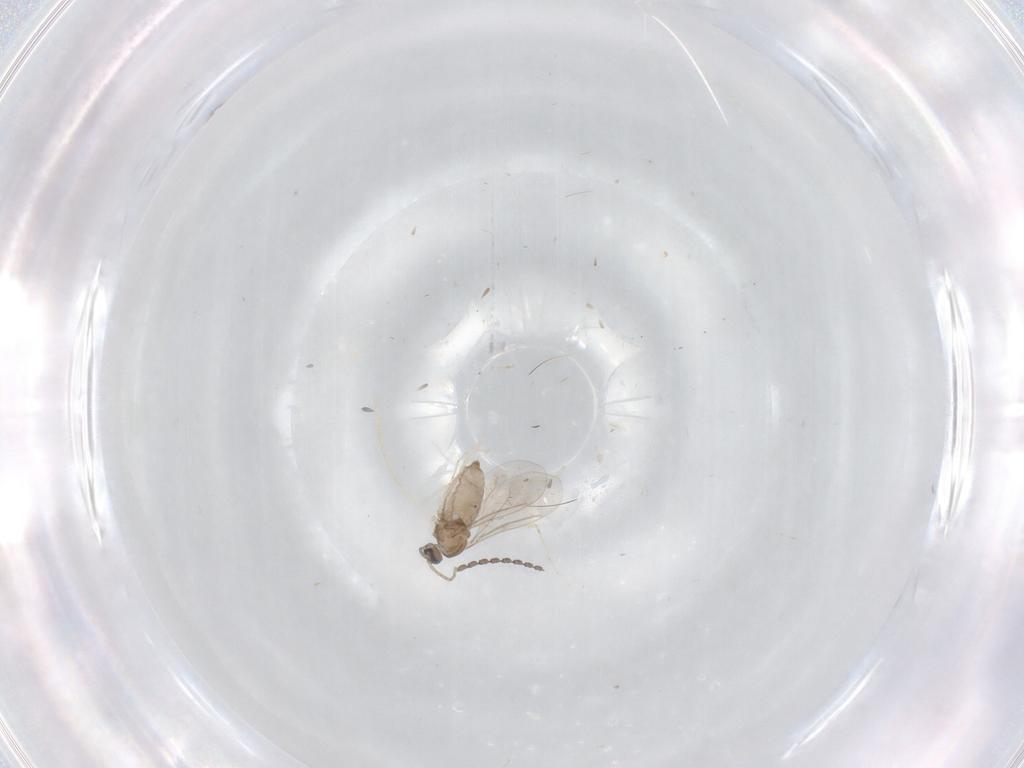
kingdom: Animalia
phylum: Arthropoda
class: Insecta
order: Diptera
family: Cecidomyiidae
